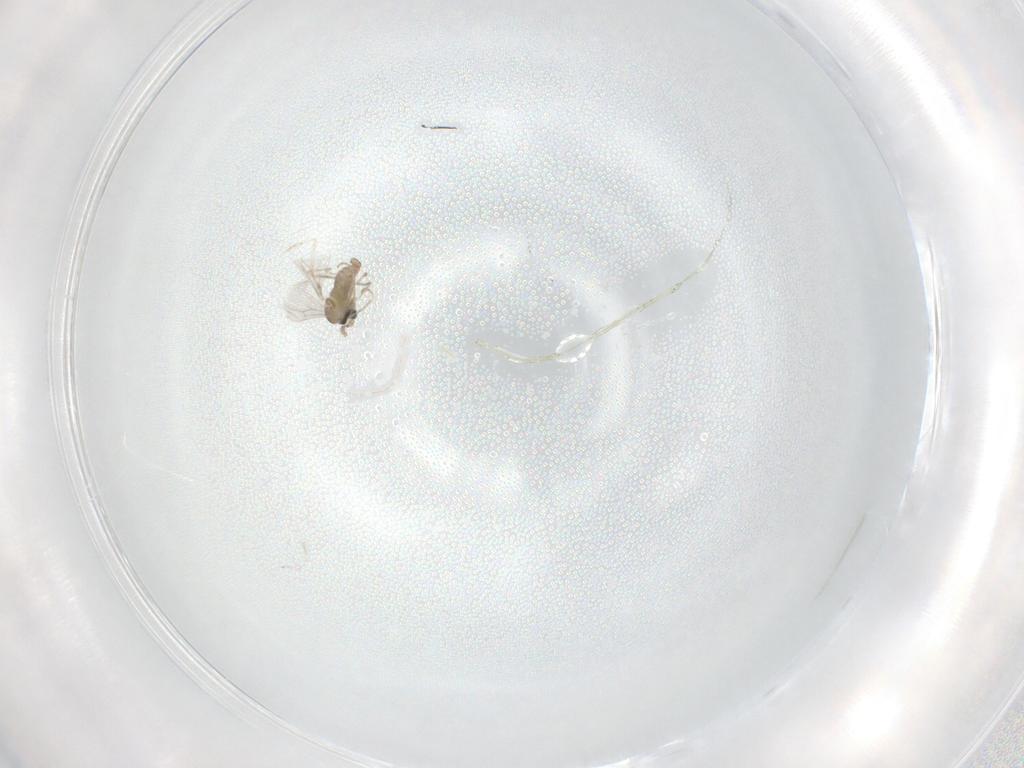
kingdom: Animalia
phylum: Arthropoda
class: Insecta
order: Diptera
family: Cecidomyiidae
